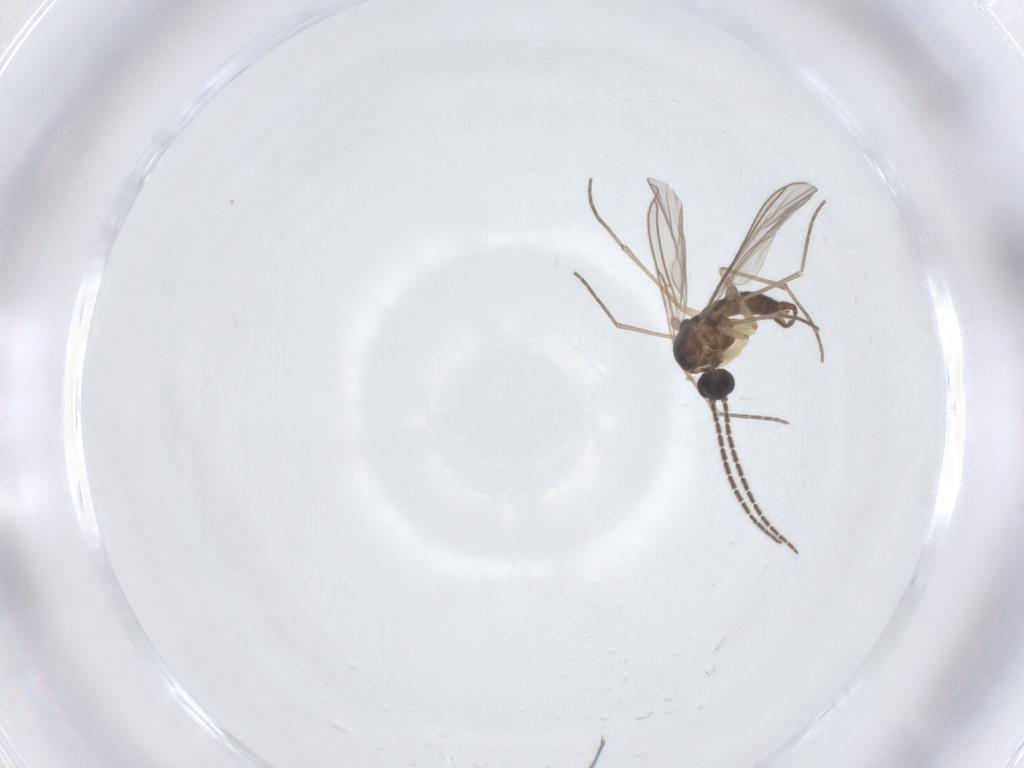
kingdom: Animalia
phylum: Arthropoda
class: Insecta
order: Diptera
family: Sciaridae
